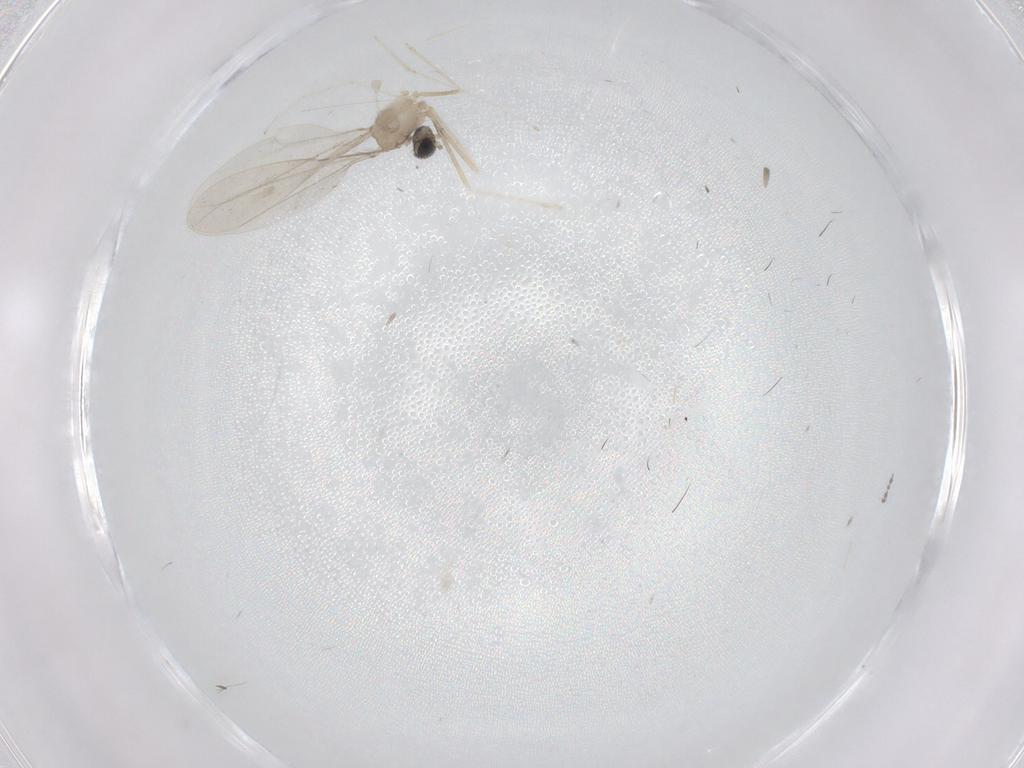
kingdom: Animalia
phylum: Arthropoda
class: Insecta
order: Diptera
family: Cecidomyiidae
